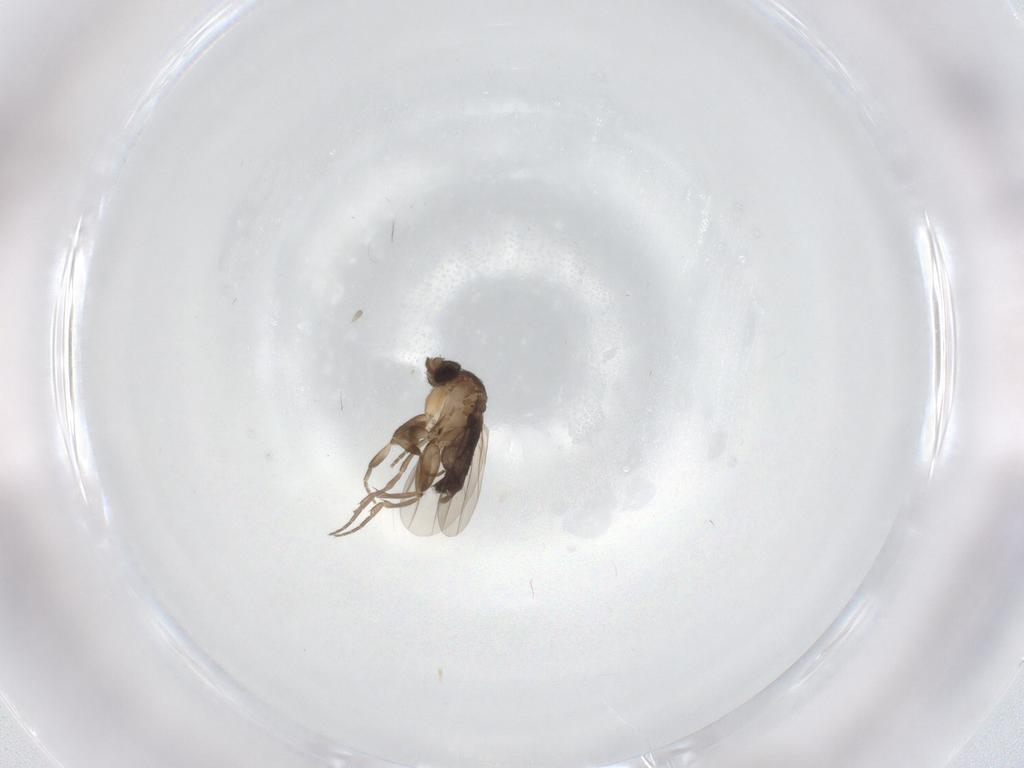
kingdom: Animalia
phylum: Arthropoda
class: Insecta
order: Diptera
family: Phoridae
